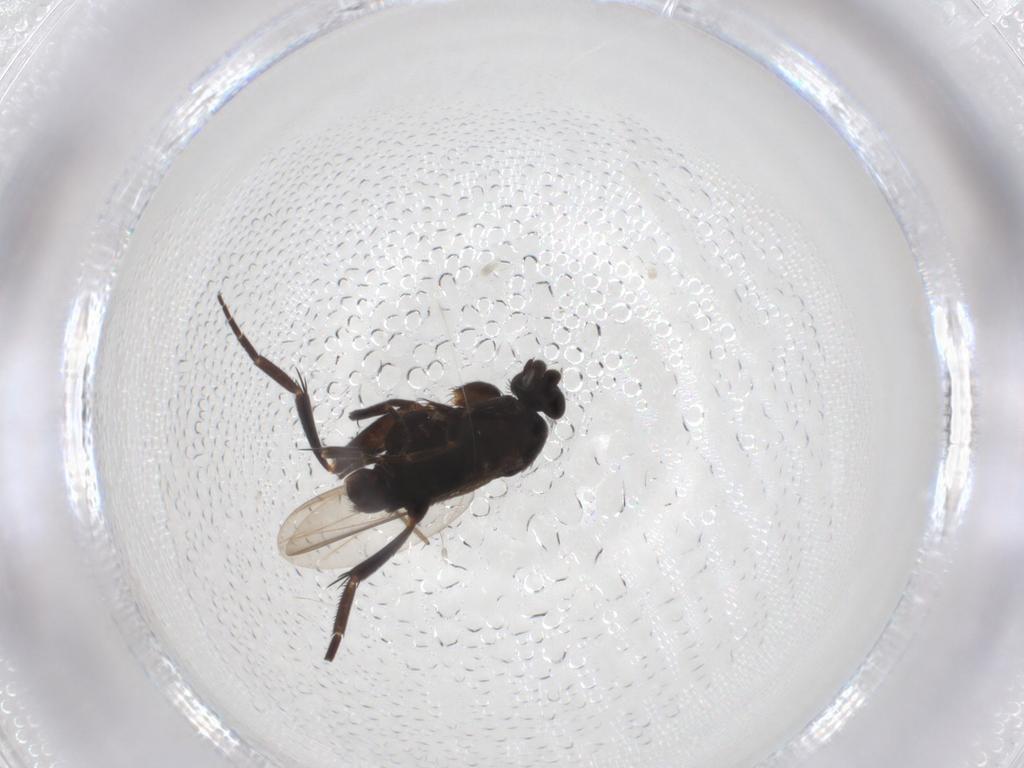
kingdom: Animalia
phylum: Arthropoda
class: Insecta
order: Diptera
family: Phoridae
